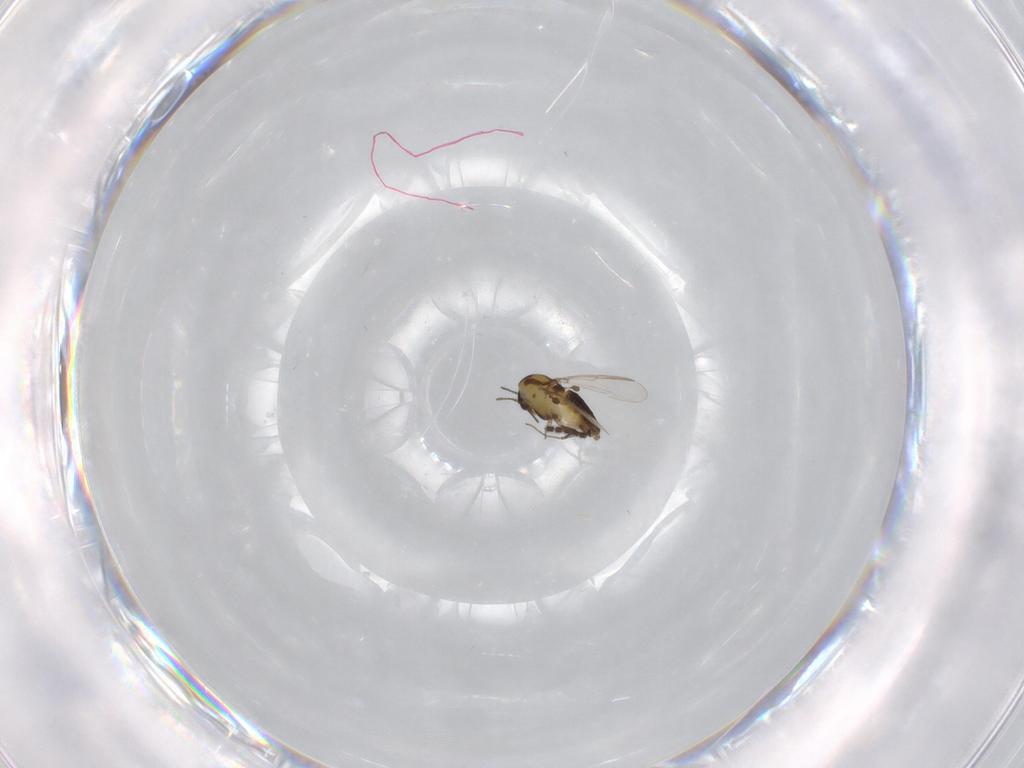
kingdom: Animalia
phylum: Arthropoda
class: Insecta
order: Diptera
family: Chironomidae
